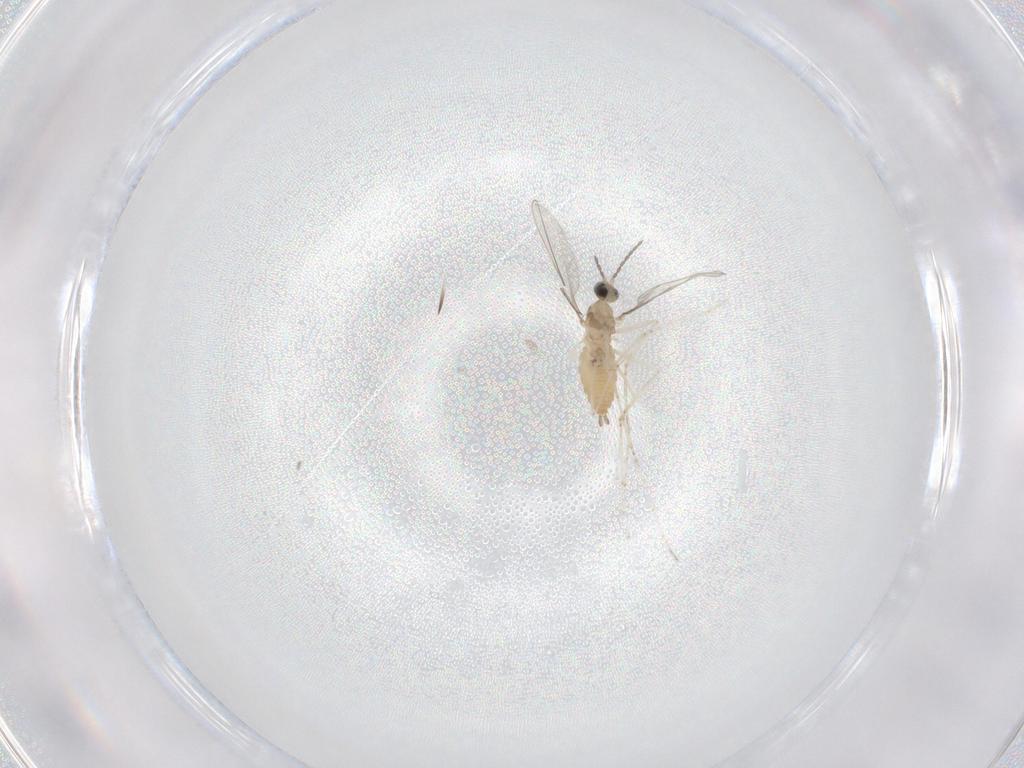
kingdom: Animalia
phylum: Arthropoda
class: Insecta
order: Diptera
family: Cecidomyiidae
